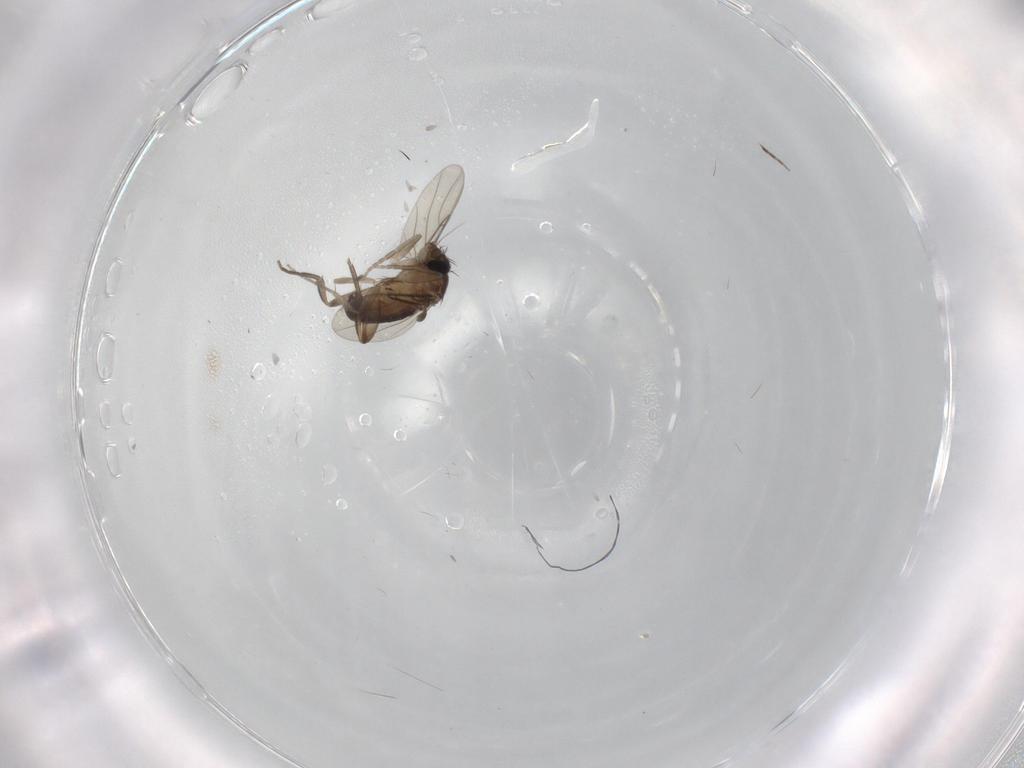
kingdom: Animalia
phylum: Arthropoda
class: Insecta
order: Diptera
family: Phoridae
